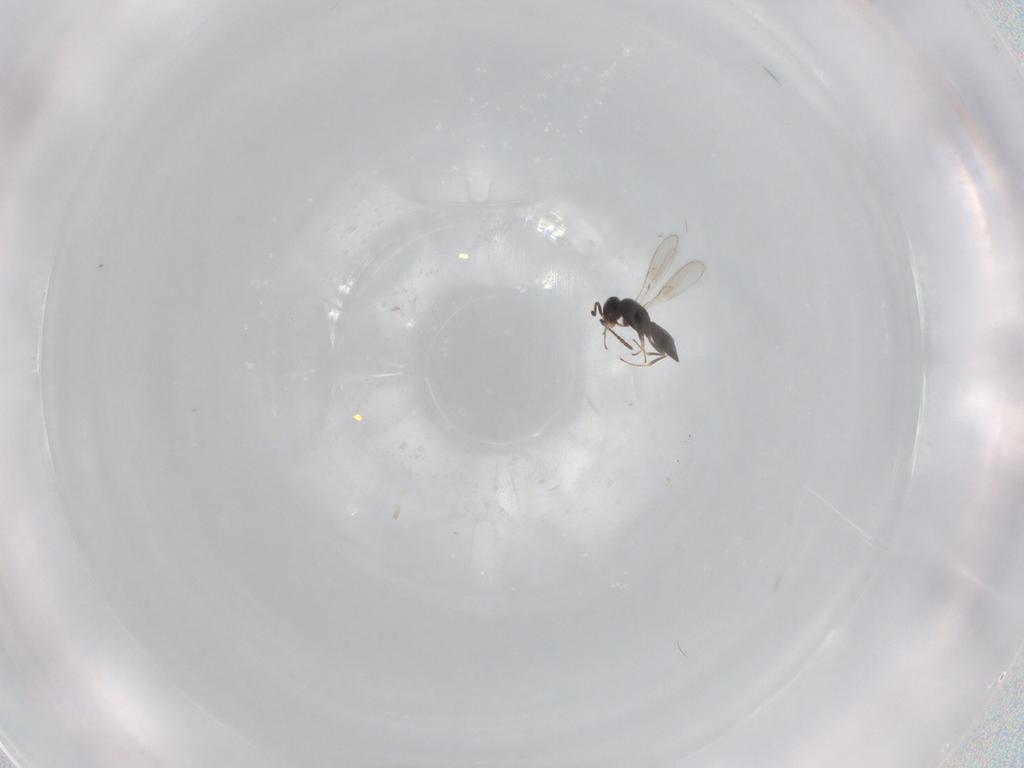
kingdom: Animalia
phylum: Arthropoda
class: Insecta
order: Hymenoptera
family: Scelionidae
